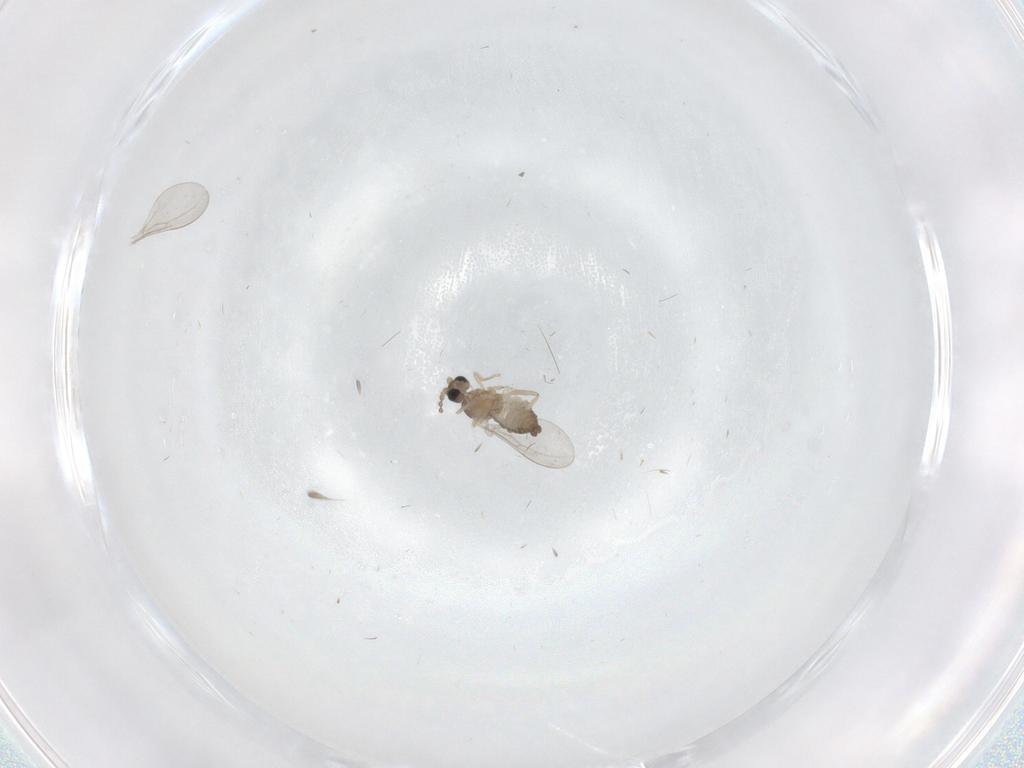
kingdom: Animalia
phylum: Arthropoda
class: Insecta
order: Diptera
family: Cecidomyiidae
